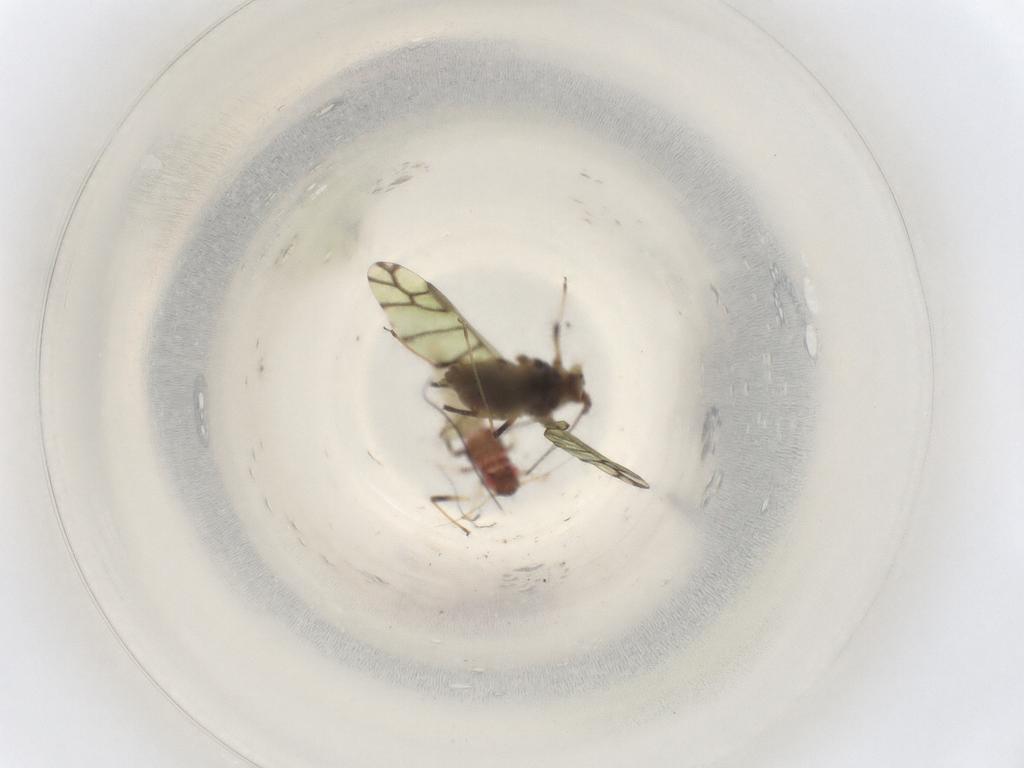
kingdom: Animalia
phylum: Arthropoda
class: Insecta
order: Hemiptera
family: Aphididae
